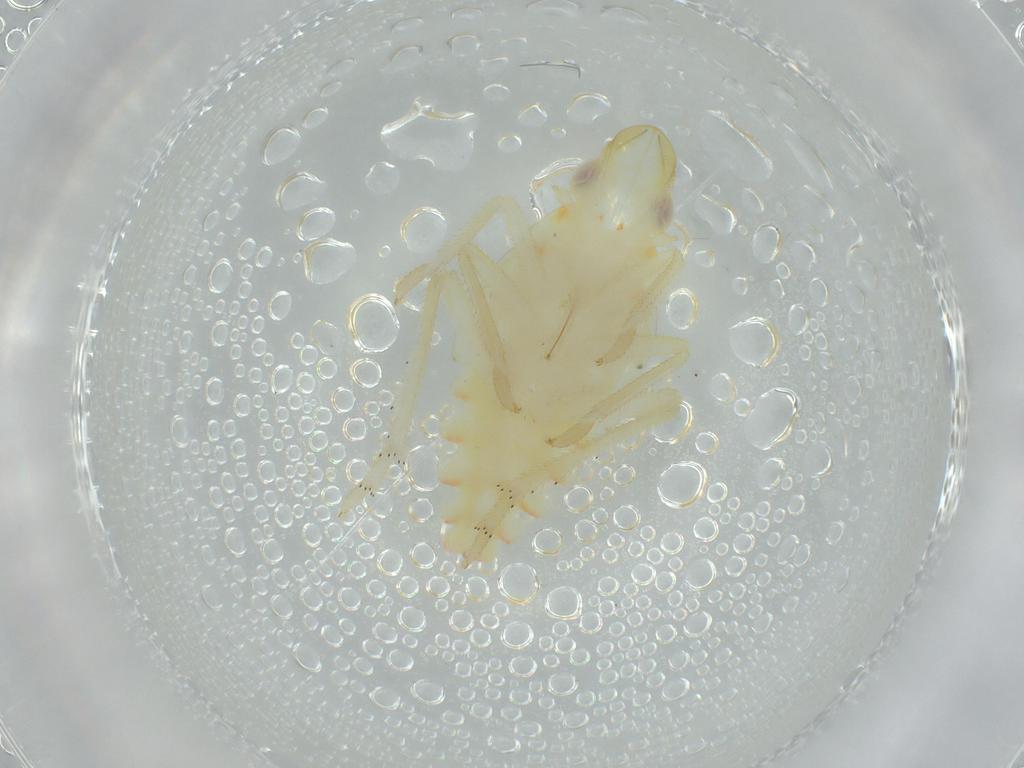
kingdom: Animalia
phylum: Arthropoda
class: Insecta
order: Hemiptera
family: Tropiduchidae
